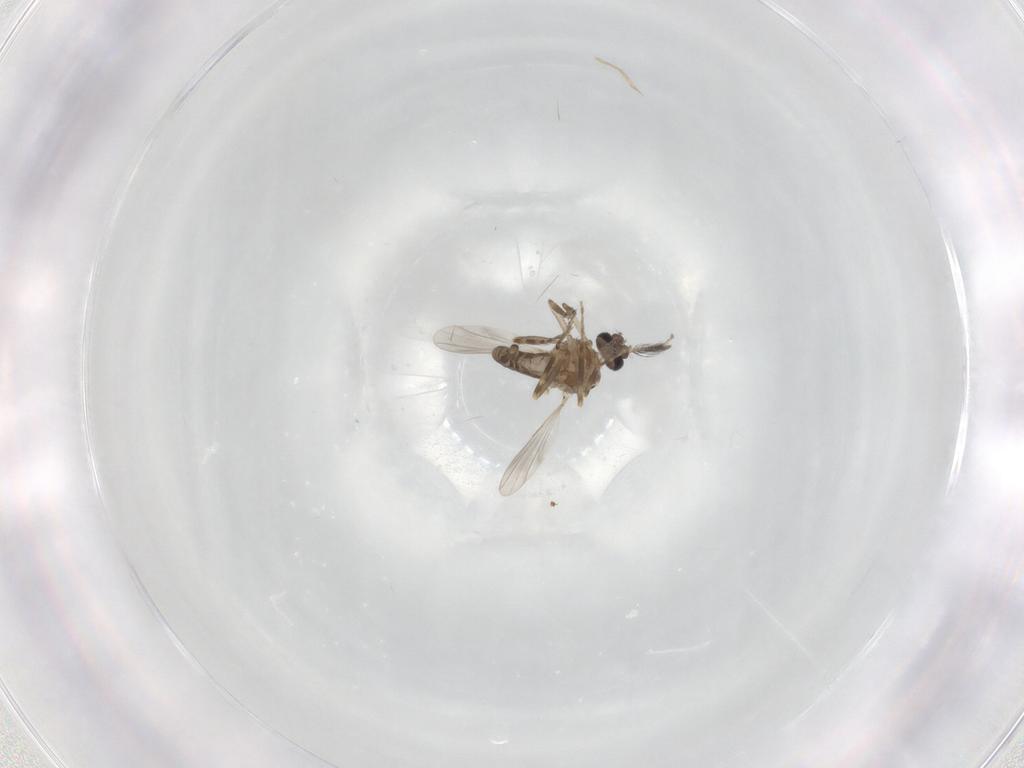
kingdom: Animalia
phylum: Arthropoda
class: Insecta
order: Diptera
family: Ceratopogonidae
